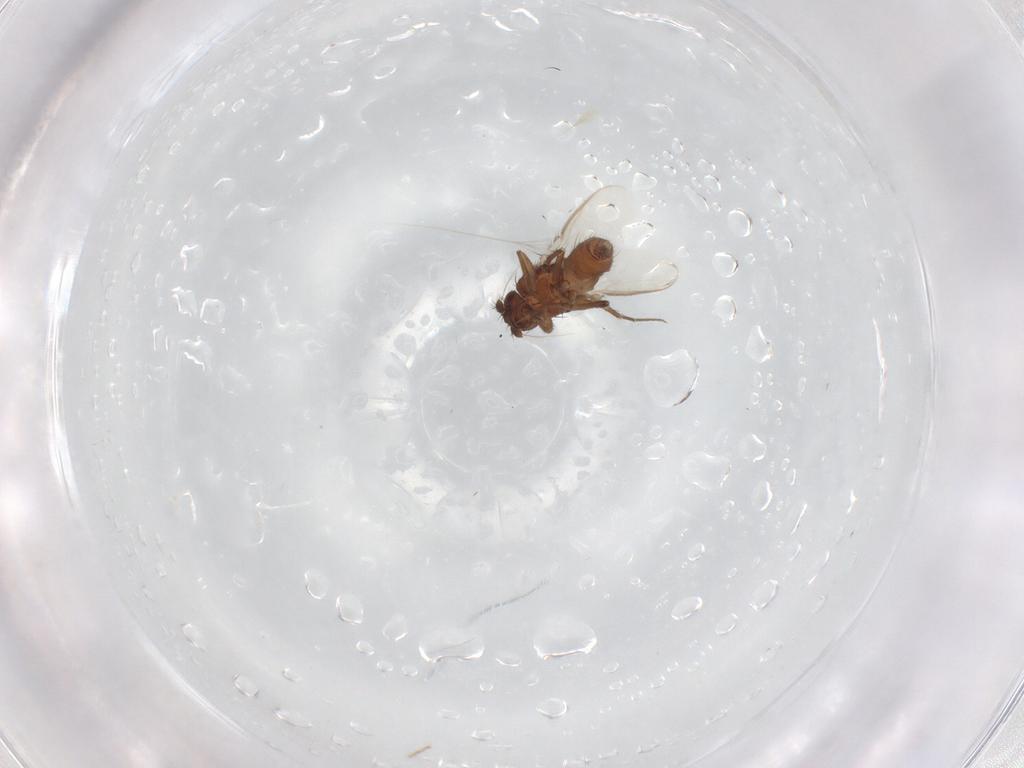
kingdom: Animalia
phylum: Arthropoda
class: Insecta
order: Diptera
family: Sphaeroceridae
